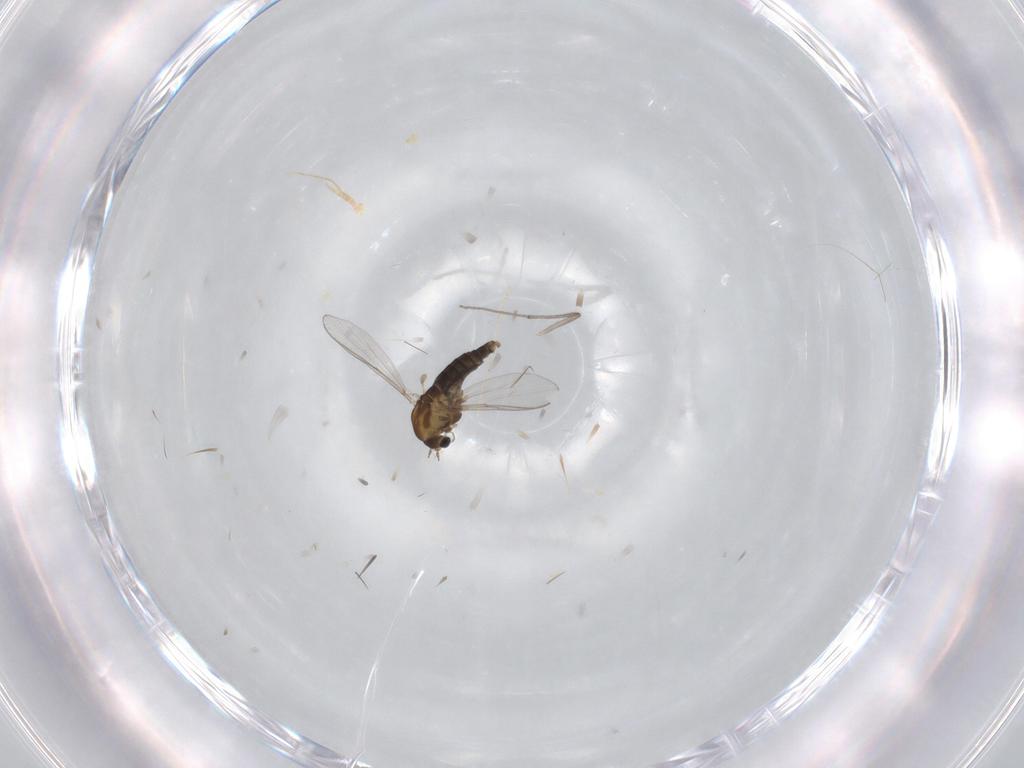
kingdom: Animalia
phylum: Arthropoda
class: Insecta
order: Diptera
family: Chironomidae
